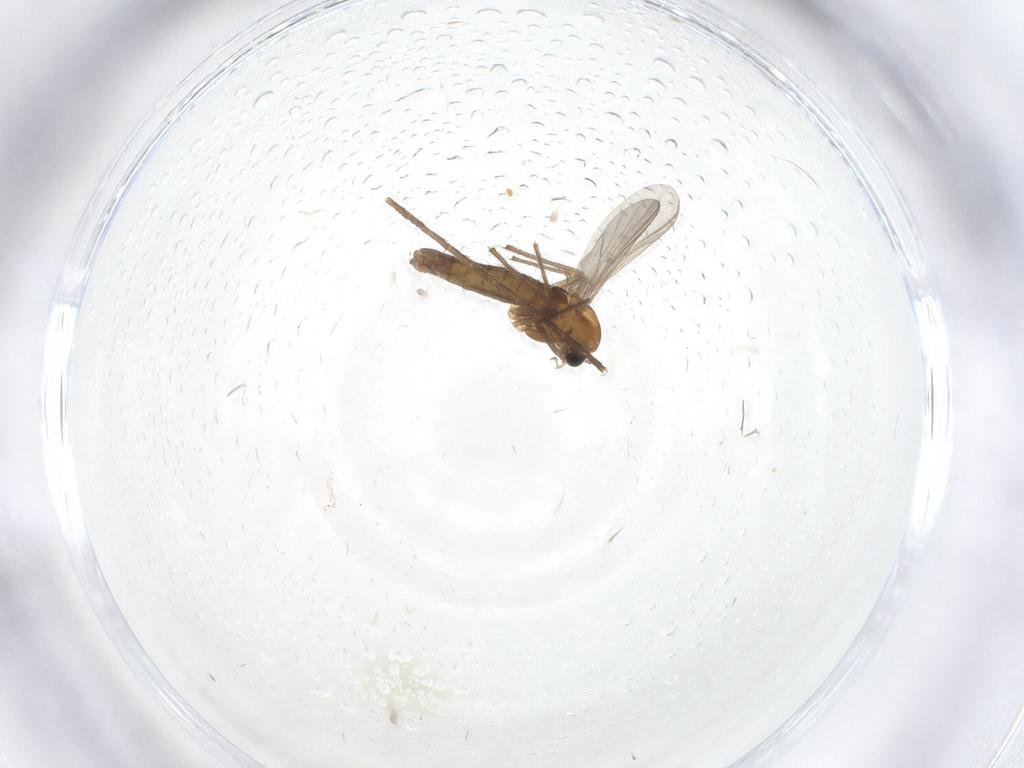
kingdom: Animalia
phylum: Arthropoda
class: Insecta
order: Diptera
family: Chironomidae
